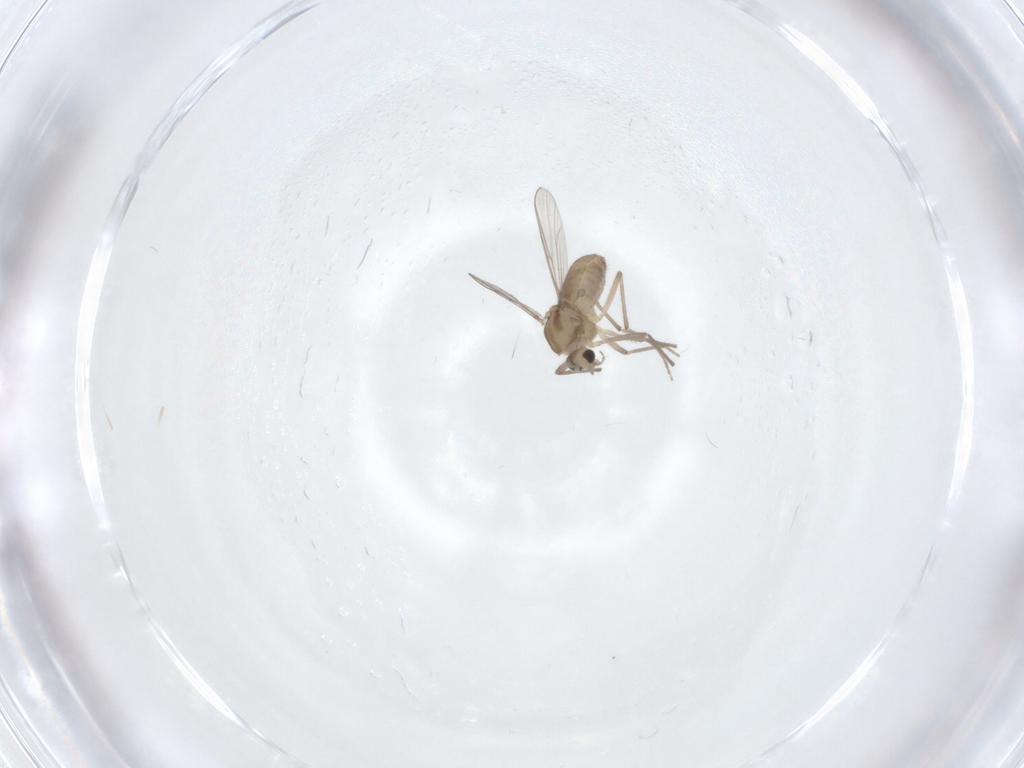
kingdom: Animalia
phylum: Arthropoda
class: Insecta
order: Diptera
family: Chironomidae
